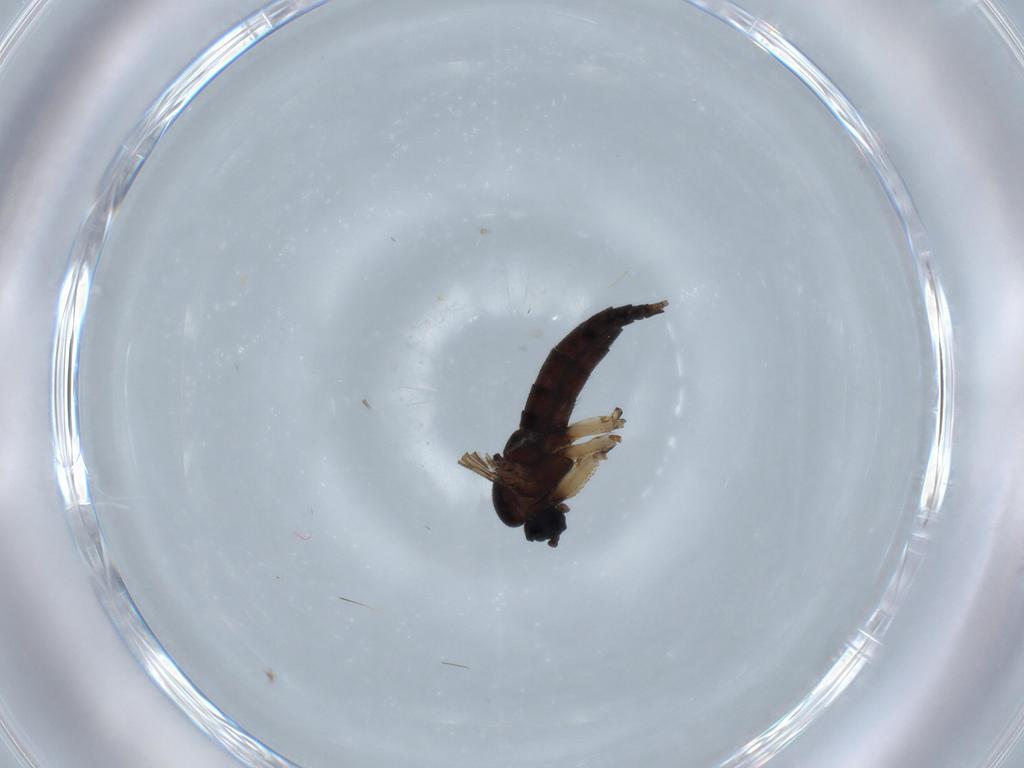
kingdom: Animalia
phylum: Arthropoda
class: Insecta
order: Diptera
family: Sciaridae
